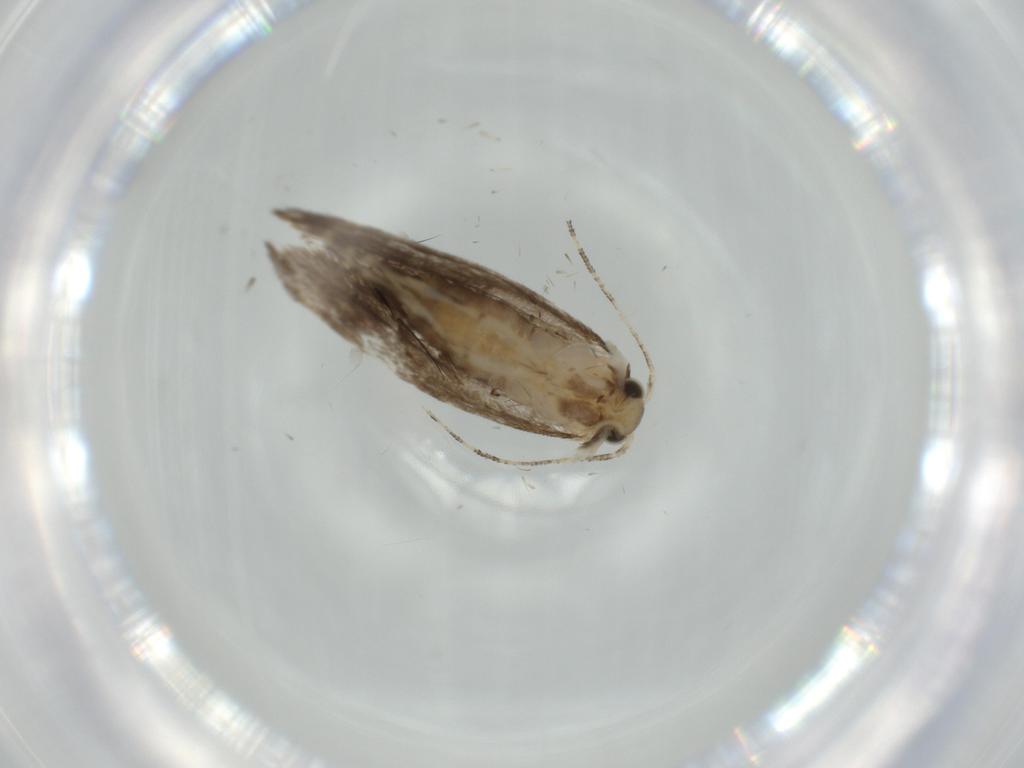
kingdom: Animalia
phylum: Arthropoda
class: Insecta
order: Lepidoptera
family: Tineidae
